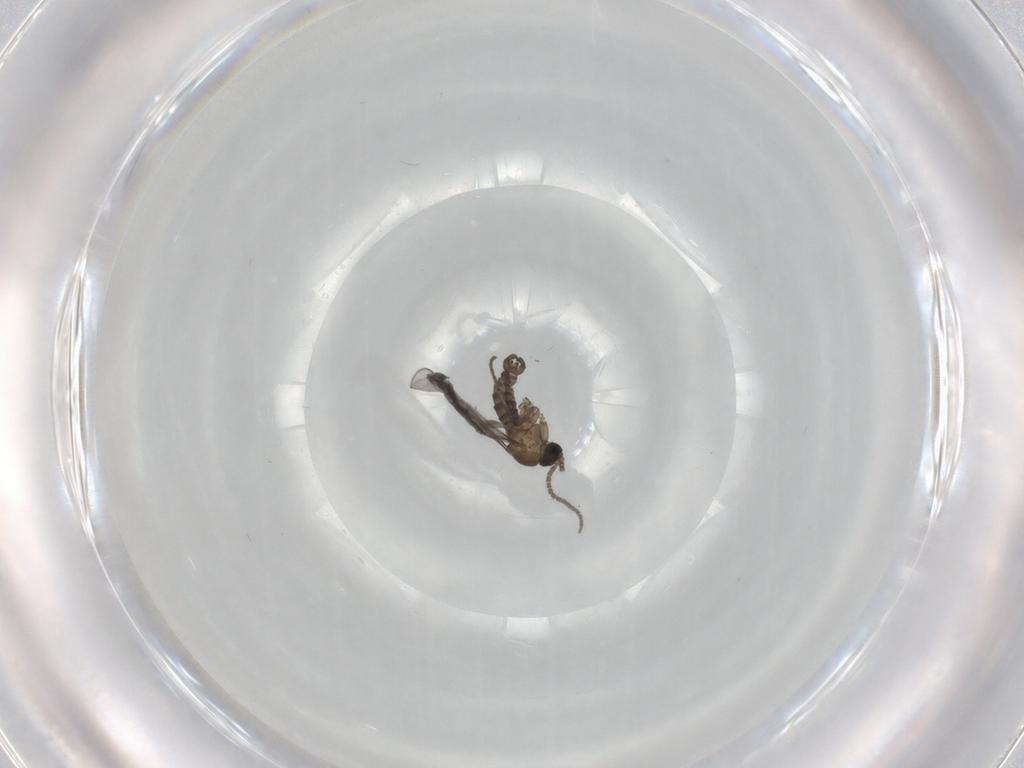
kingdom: Animalia
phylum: Arthropoda
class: Insecta
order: Diptera
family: Sciaridae
